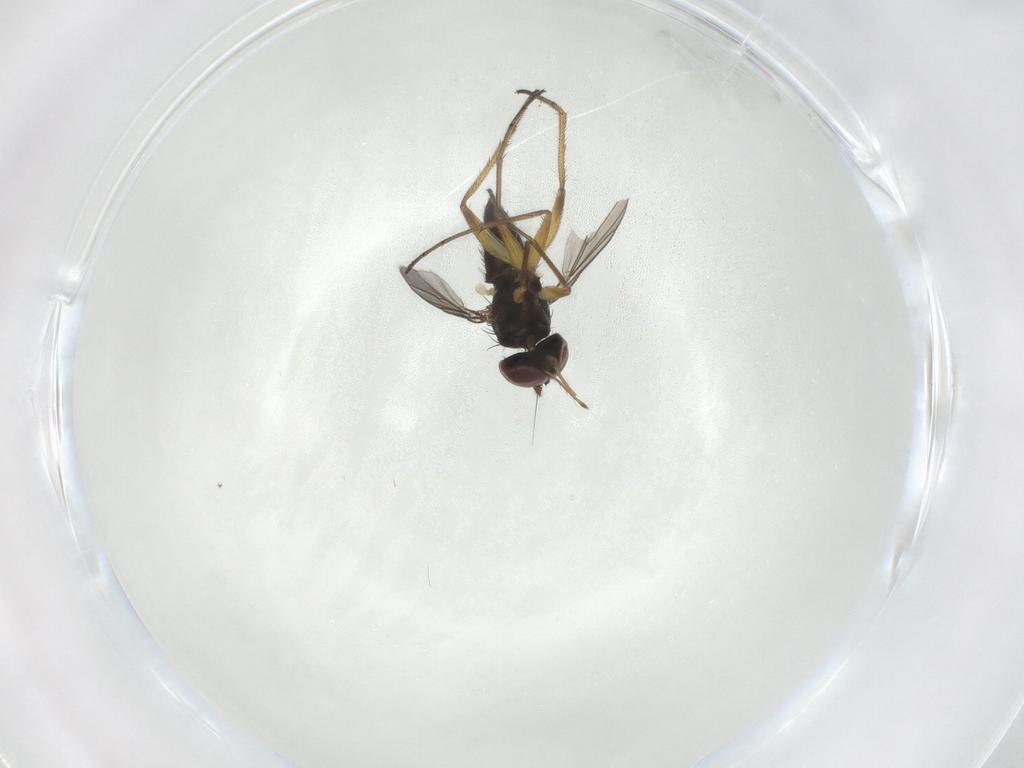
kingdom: Animalia
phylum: Arthropoda
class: Insecta
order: Diptera
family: Dolichopodidae
